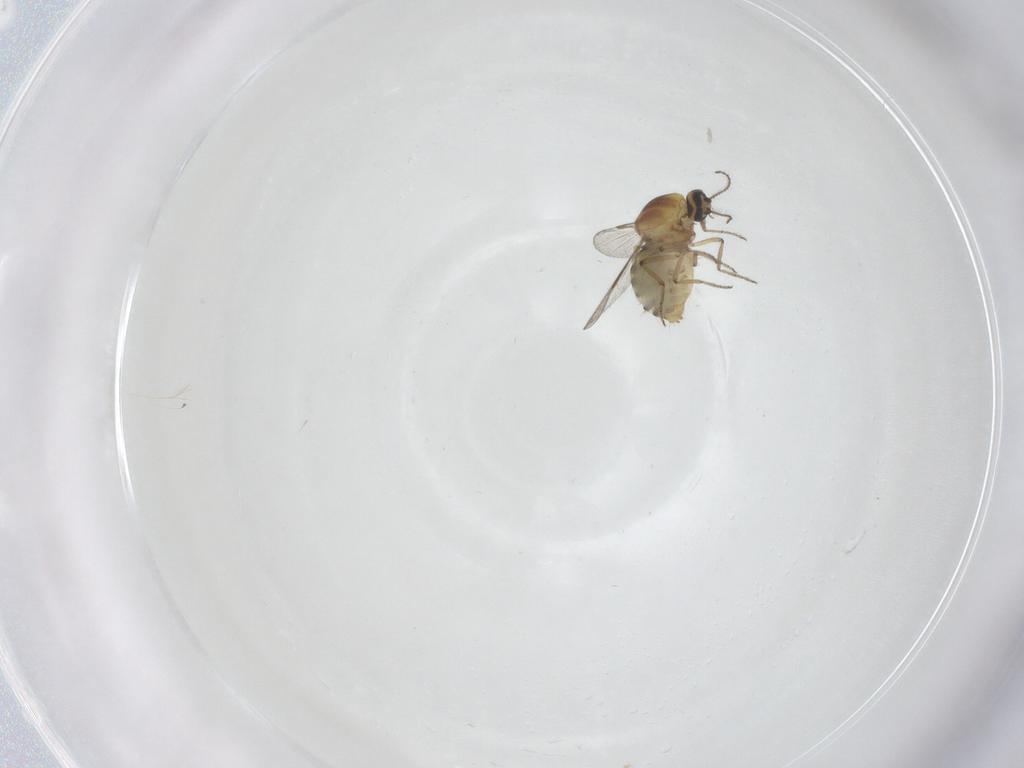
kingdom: Animalia
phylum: Arthropoda
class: Insecta
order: Diptera
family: Ceratopogonidae
